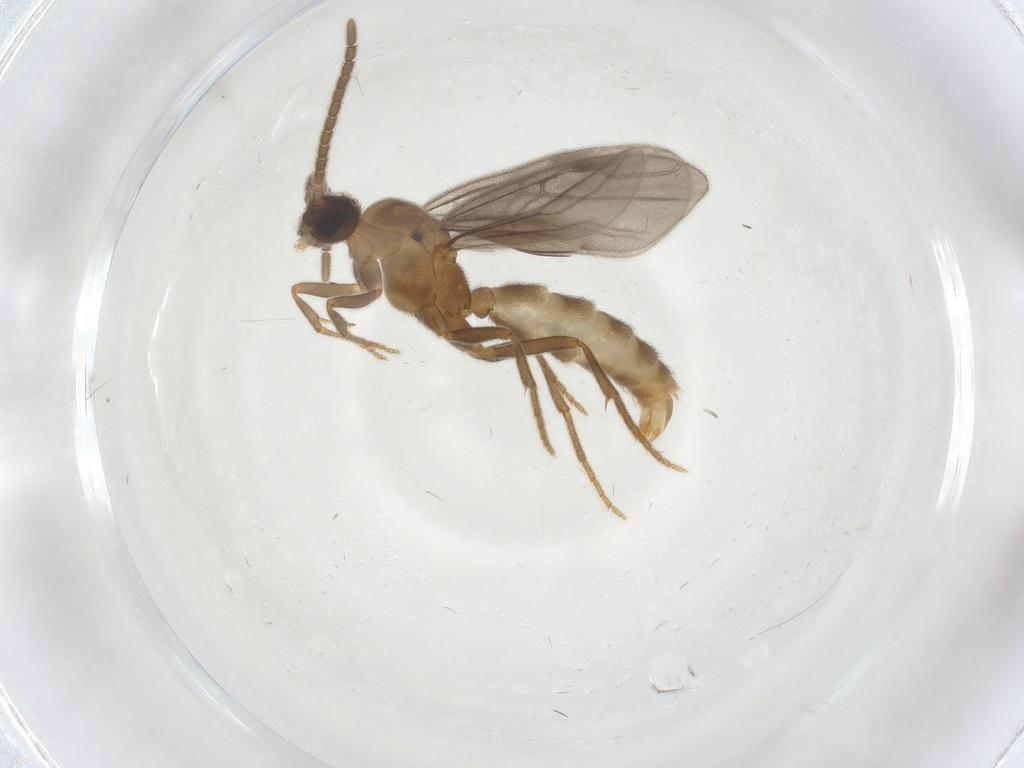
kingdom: Animalia
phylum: Arthropoda
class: Insecta
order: Hymenoptera
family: Formicidae
